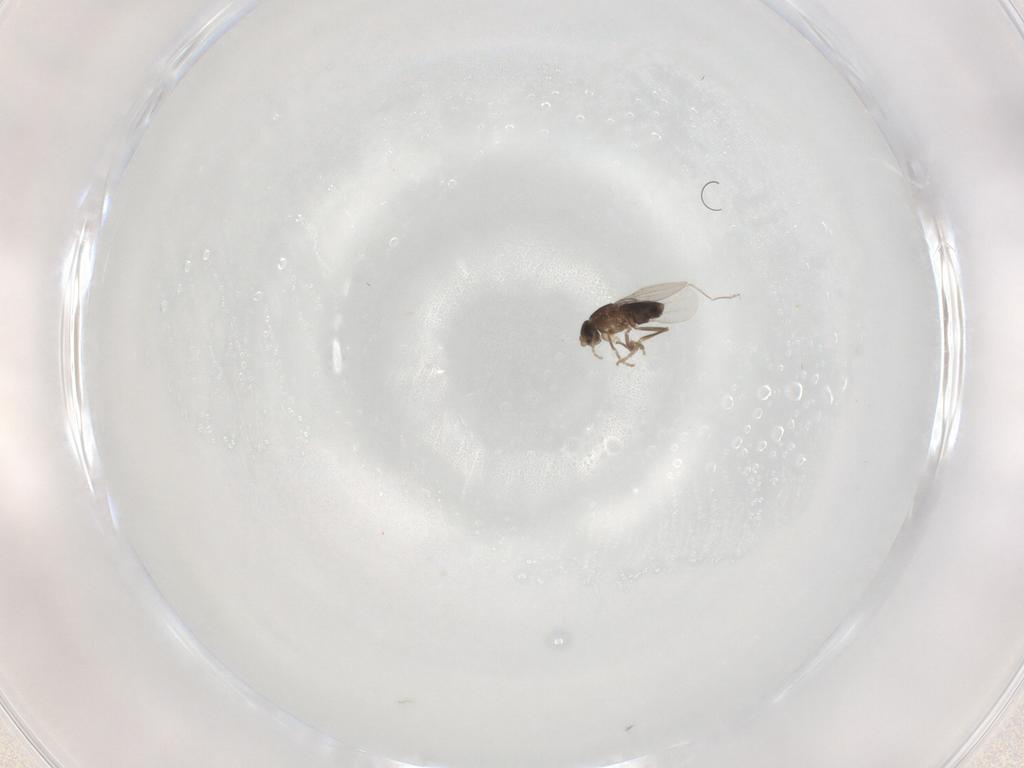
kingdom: Animalia
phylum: Arthropoda
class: Insecta
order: Diptera
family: Phoridae
